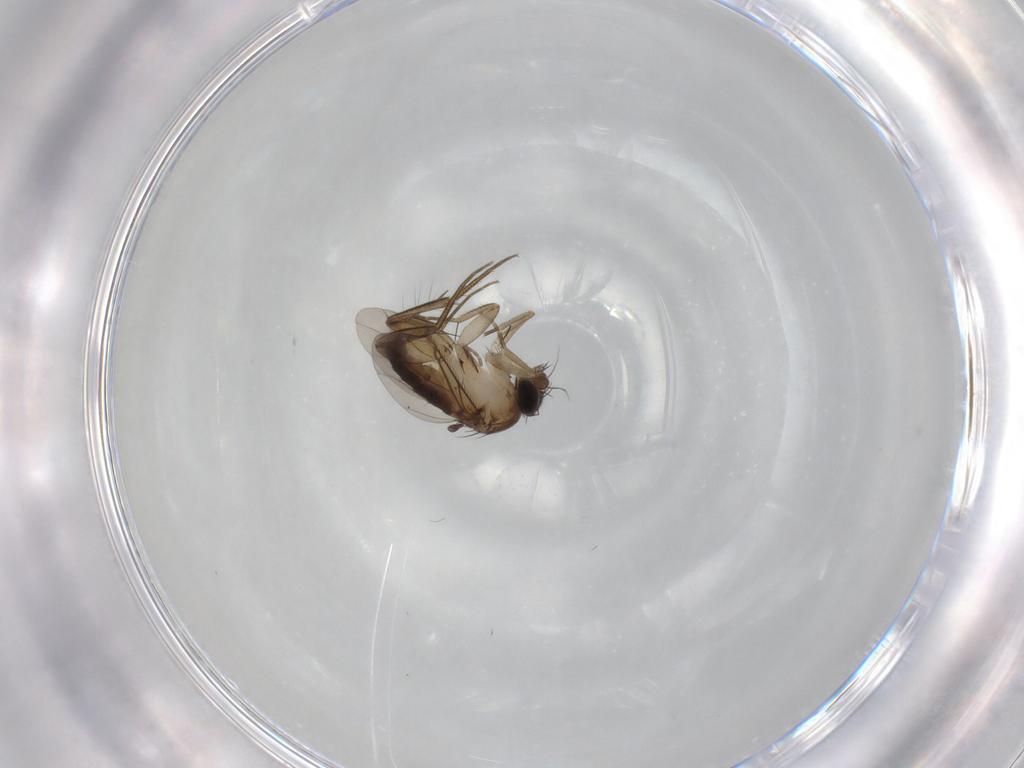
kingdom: Animalia
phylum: Arthropoda
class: Insecta
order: Diptera
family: Phoridae
